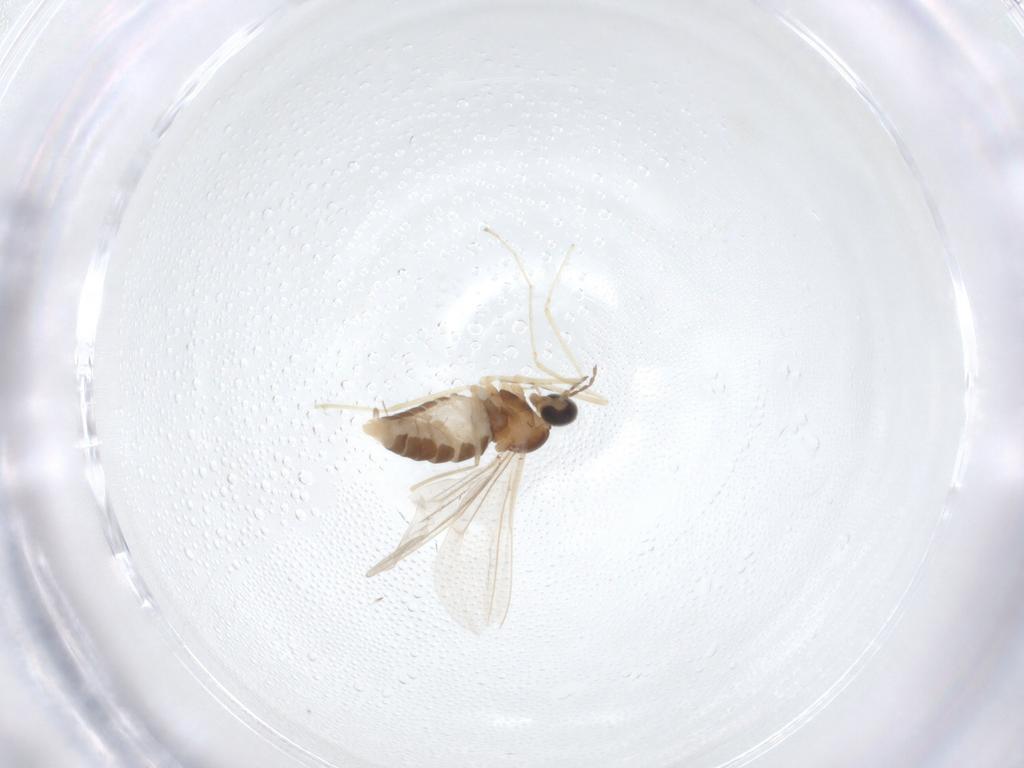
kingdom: Animalia
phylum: Arthropoda
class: Insecta
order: Diptera
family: Cecidomyiidae
